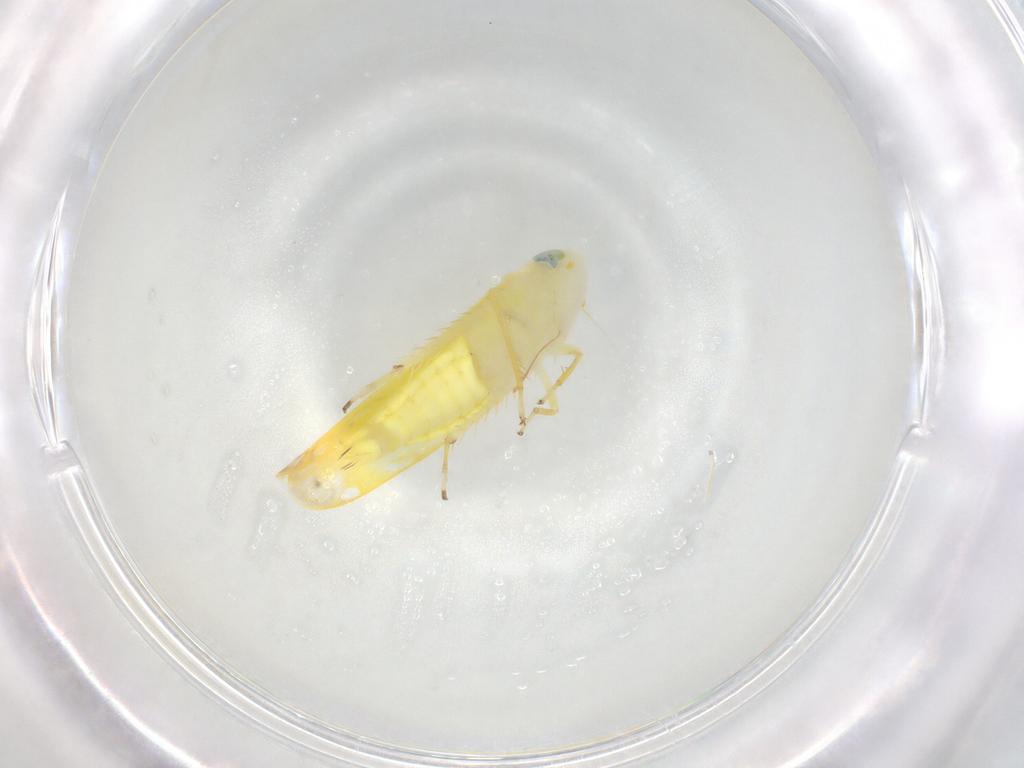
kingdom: Animalia
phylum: Arthropoda
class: Insecta
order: Hemiptera
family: Cicadellidae
